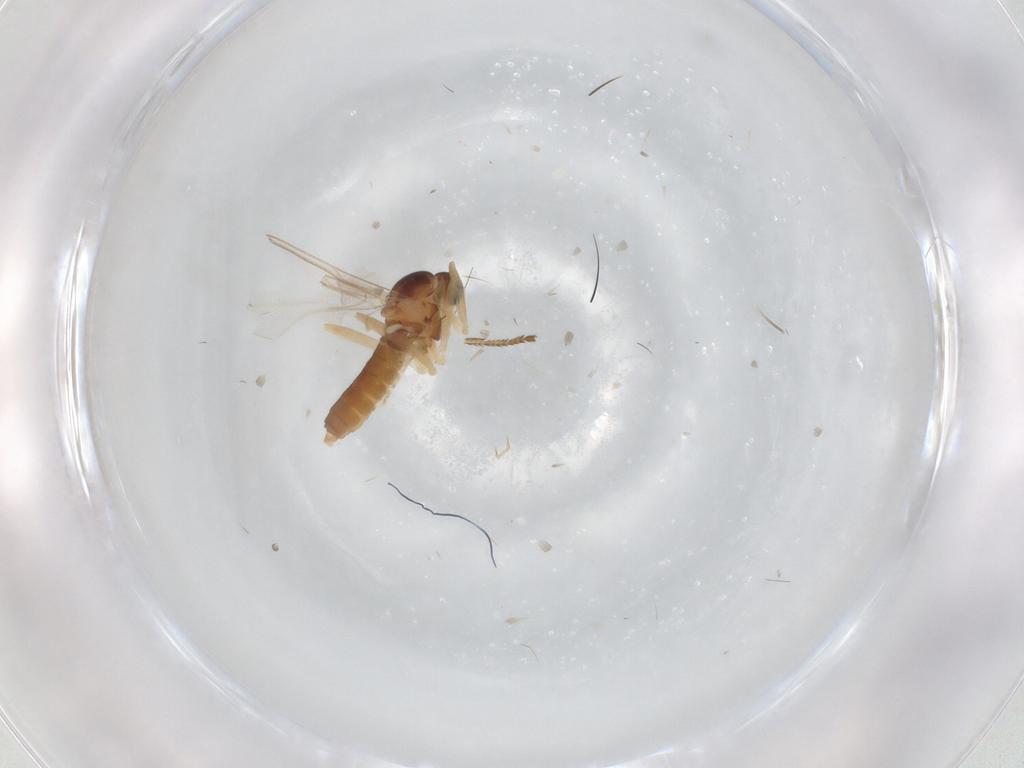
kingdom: Animalia
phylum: Arthropoda
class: Insecta
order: Diptera
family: Cecidomyiidae
